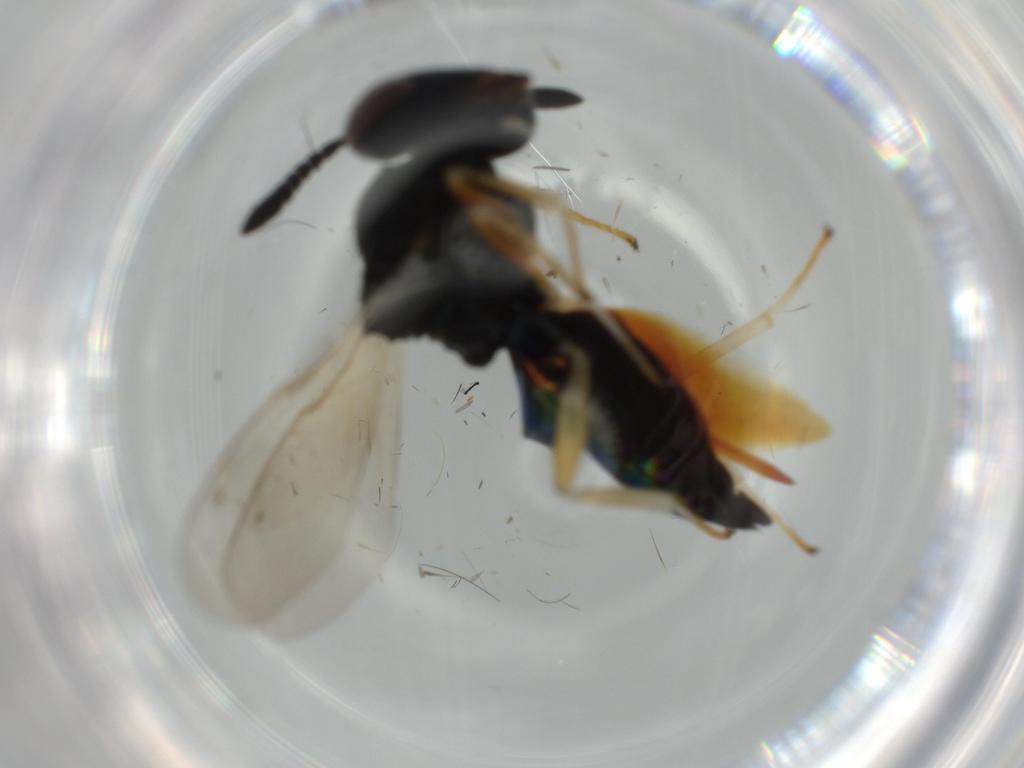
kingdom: Animalia
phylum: Arthropoda
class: Insecta
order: Hymenoptera
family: Pteromalidae
